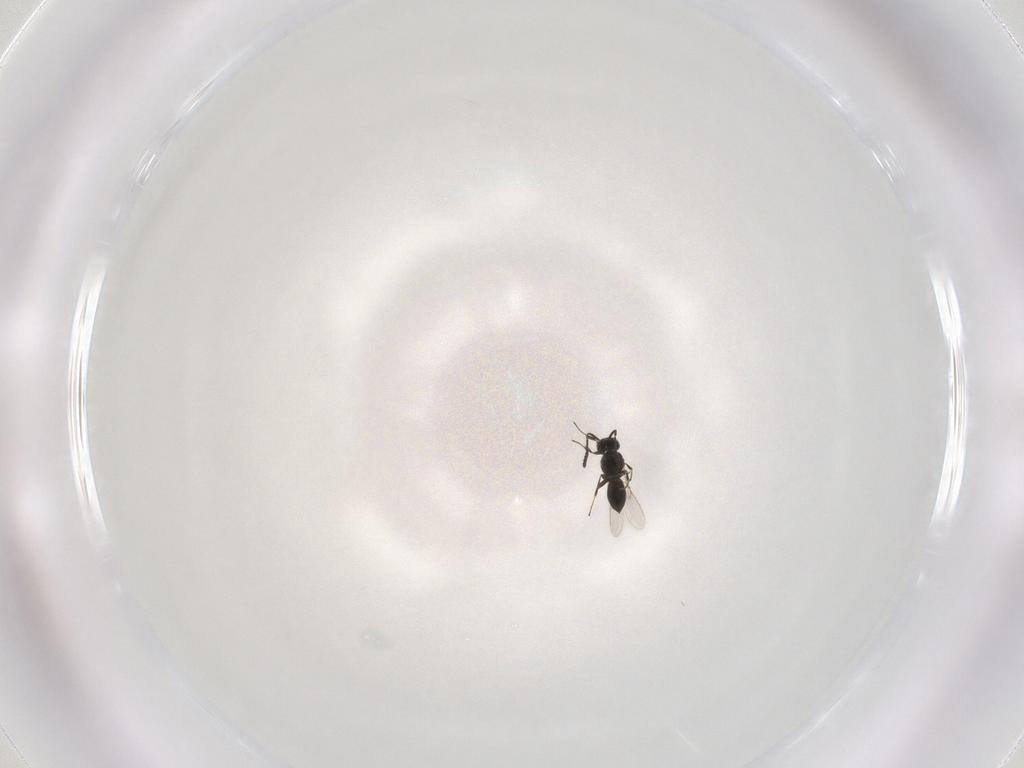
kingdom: Animalia
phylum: Arthropoda
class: Insecta
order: Hymenoptera
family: Scelionidae
